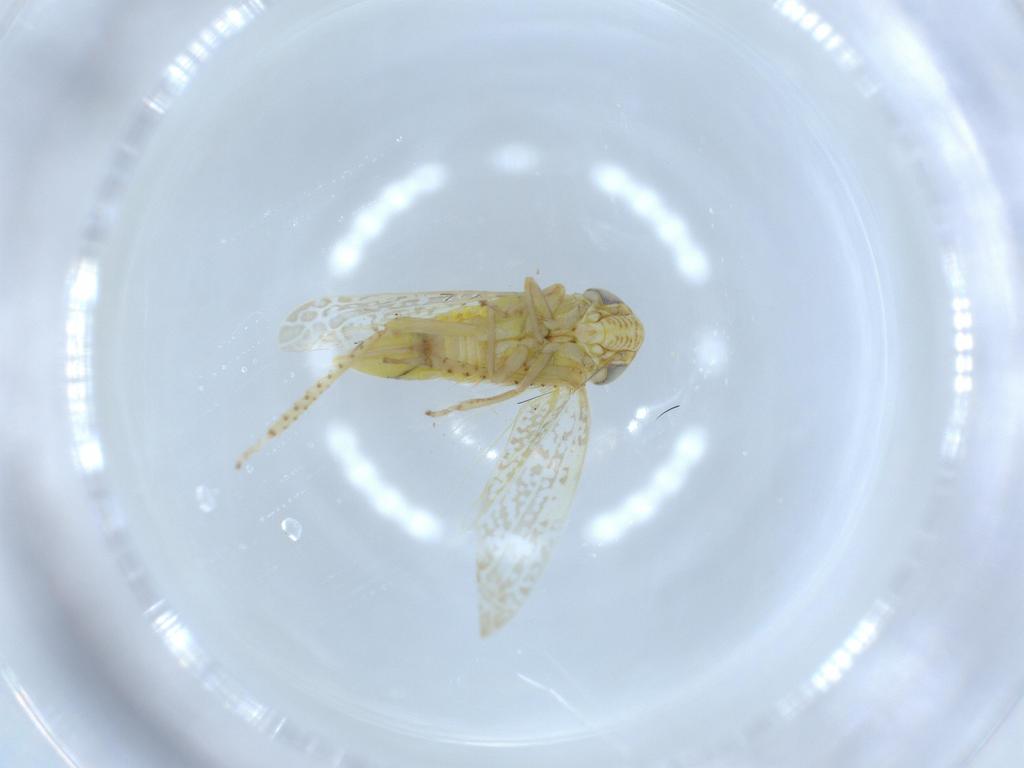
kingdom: Animalia
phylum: Arthropoda
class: Insecta
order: Hemiptera
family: Cicadellidae
